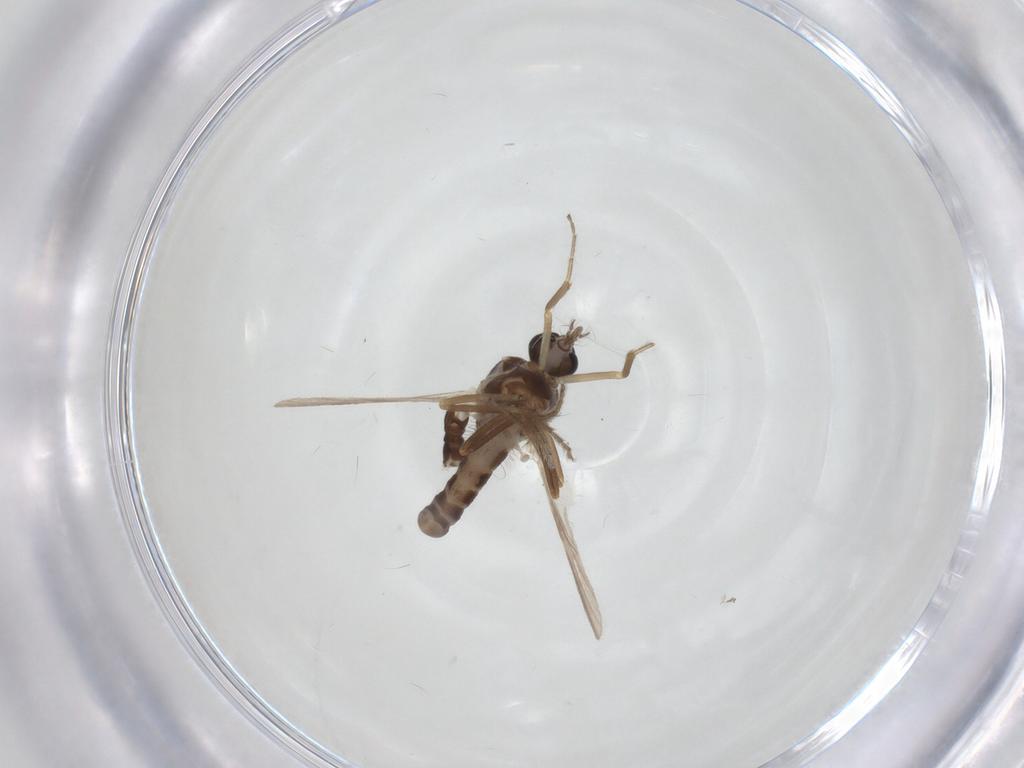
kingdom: Animalia
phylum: Arthropoda
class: Insecta
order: Diptera
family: Ceratopogonidae
